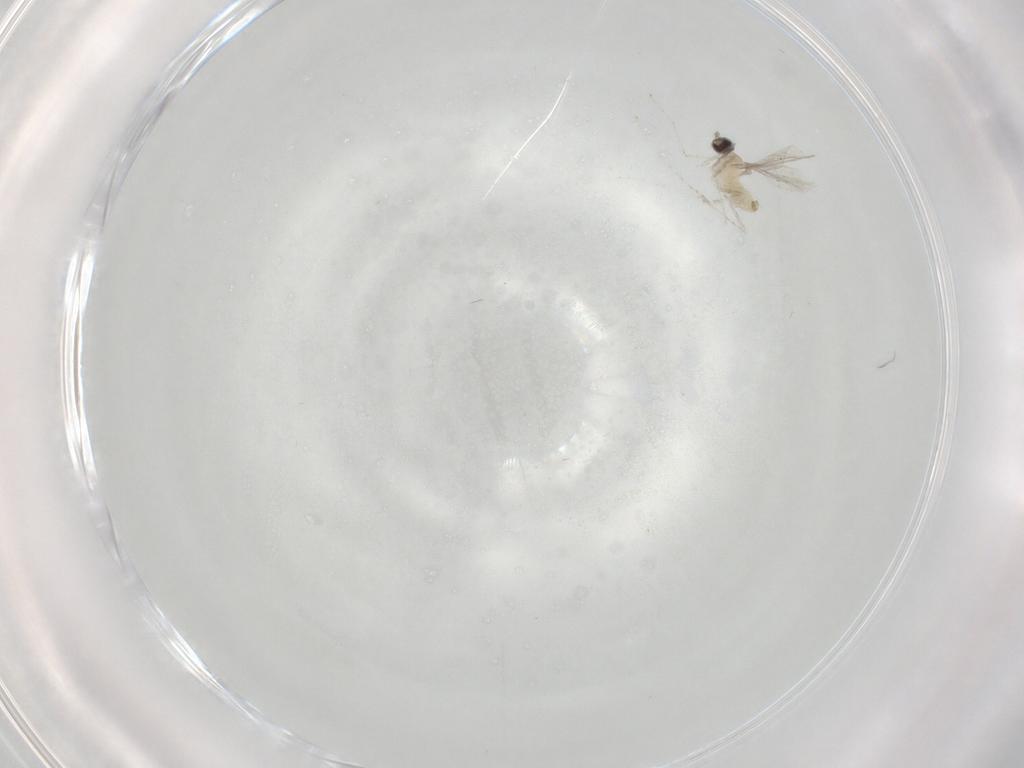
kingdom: Animalia
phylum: Arthropoda
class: Insecta
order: Diptera
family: Cecidomyiidae
